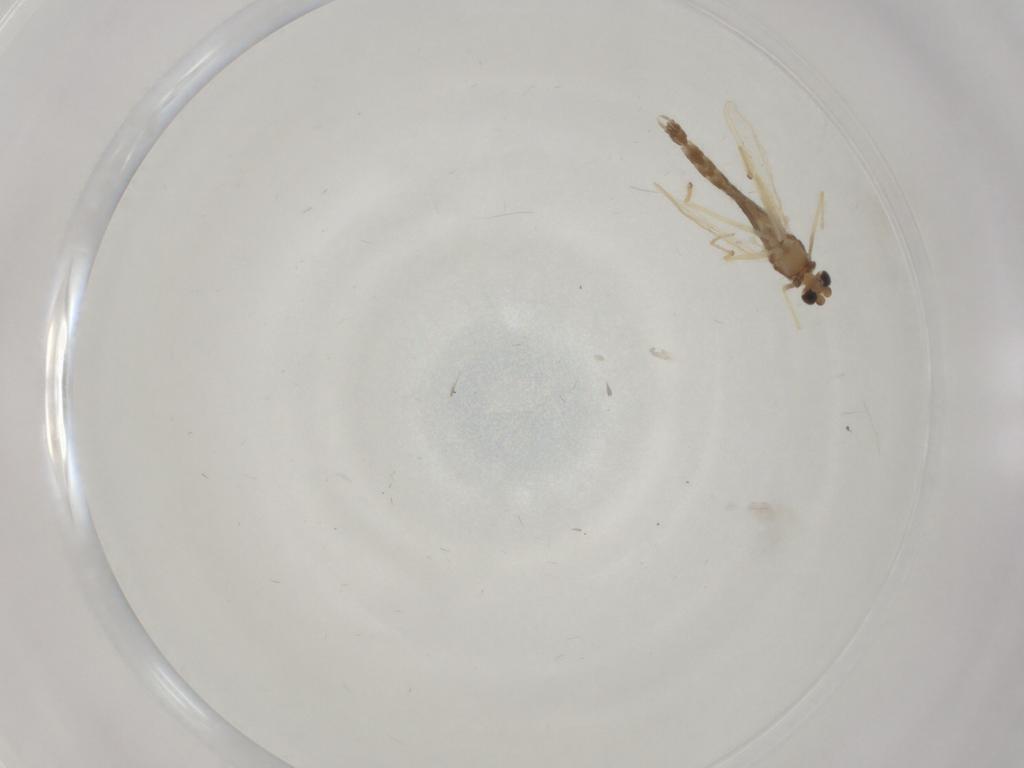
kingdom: Animalia
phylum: Arthropoda
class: Insecta
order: Diptera
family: Chironomidae
